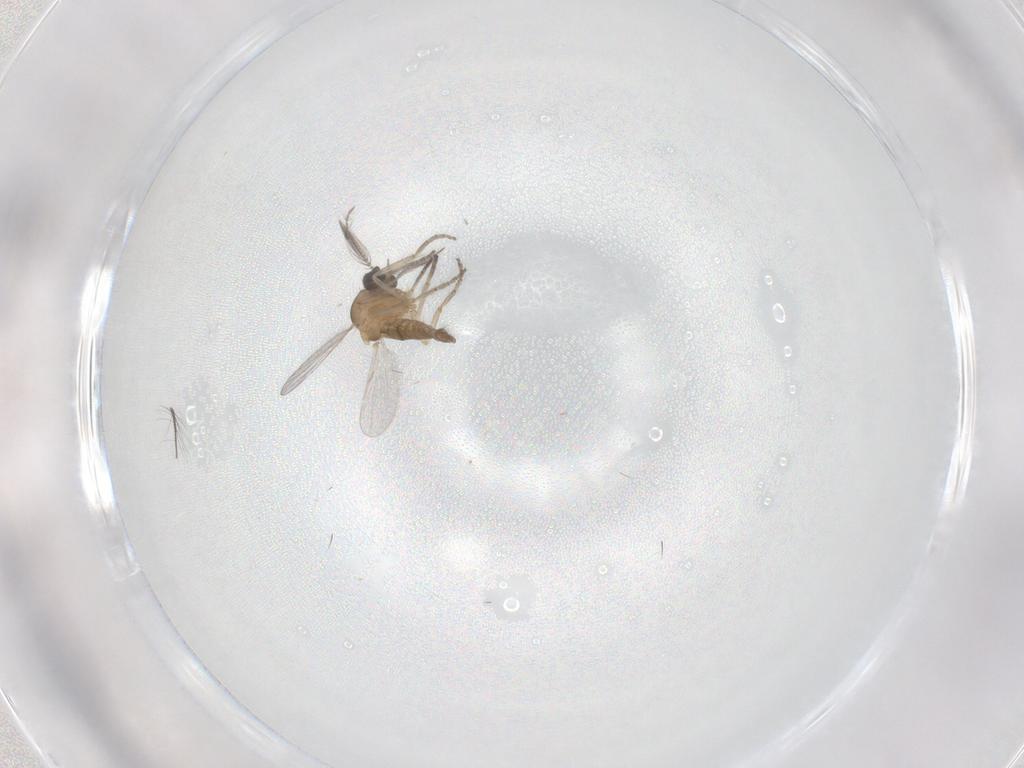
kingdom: Animalia
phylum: Arthropoda
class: Insecta
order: Diptera
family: Ceratopogonidae
